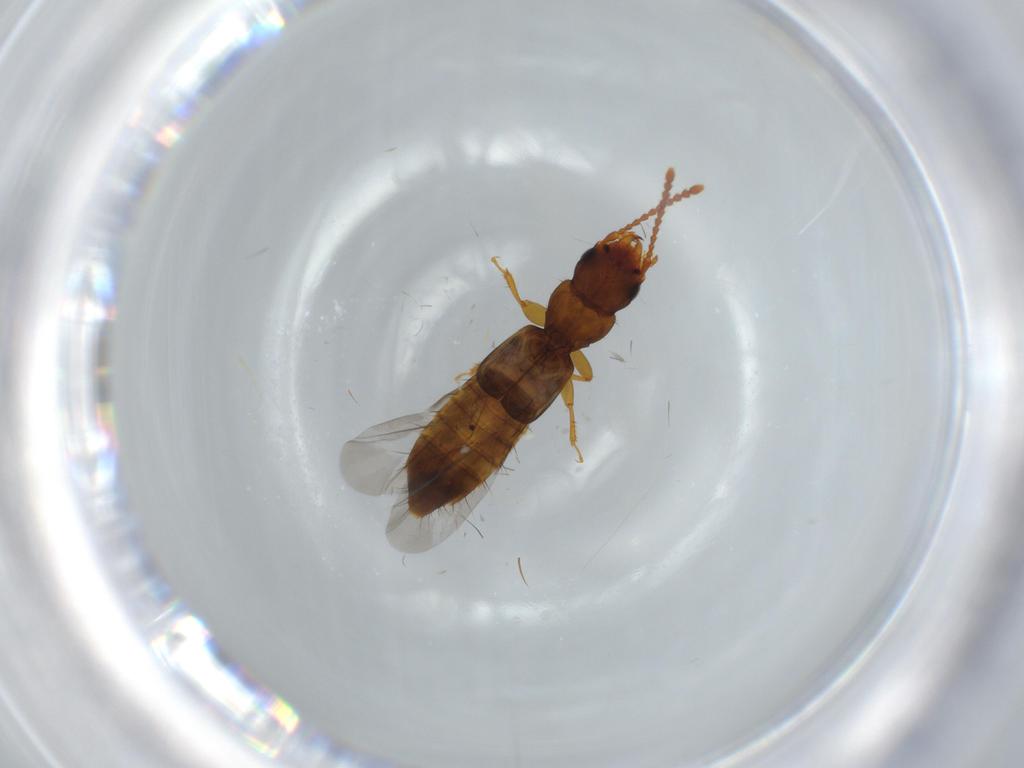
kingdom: Animalia
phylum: Arthropoda
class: Insecta
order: Coleoptera
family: Staphylinidae
